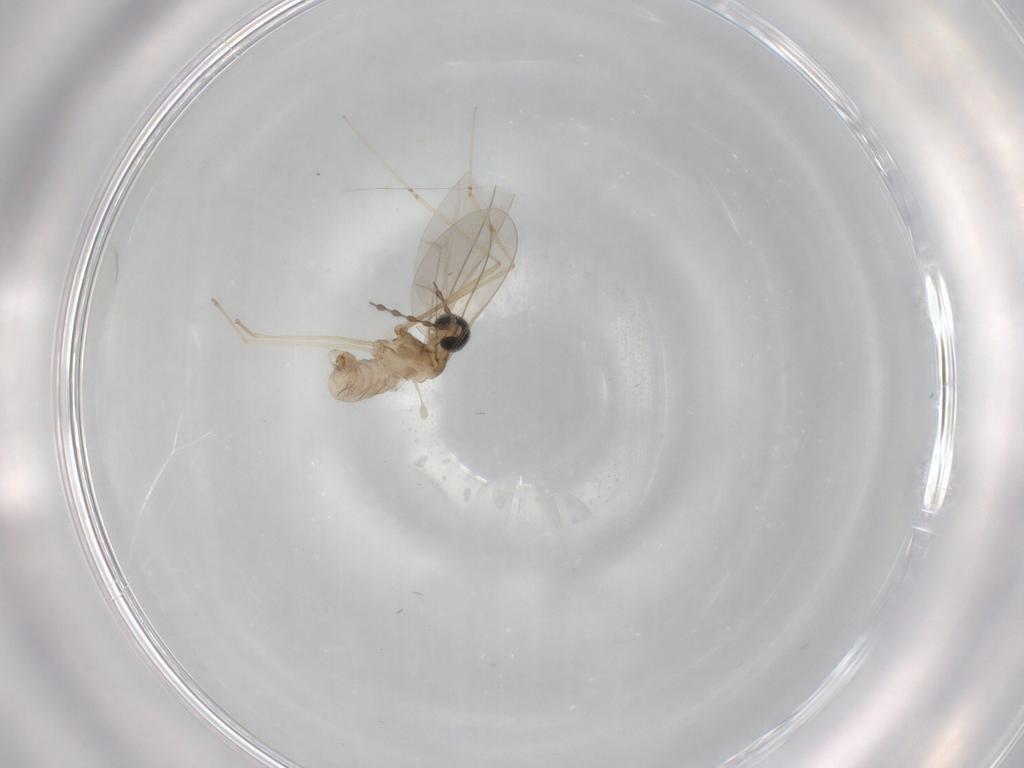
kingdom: Animalia
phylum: Arthropoda
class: Insecta
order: Diptera
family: Cecidomyiidae
